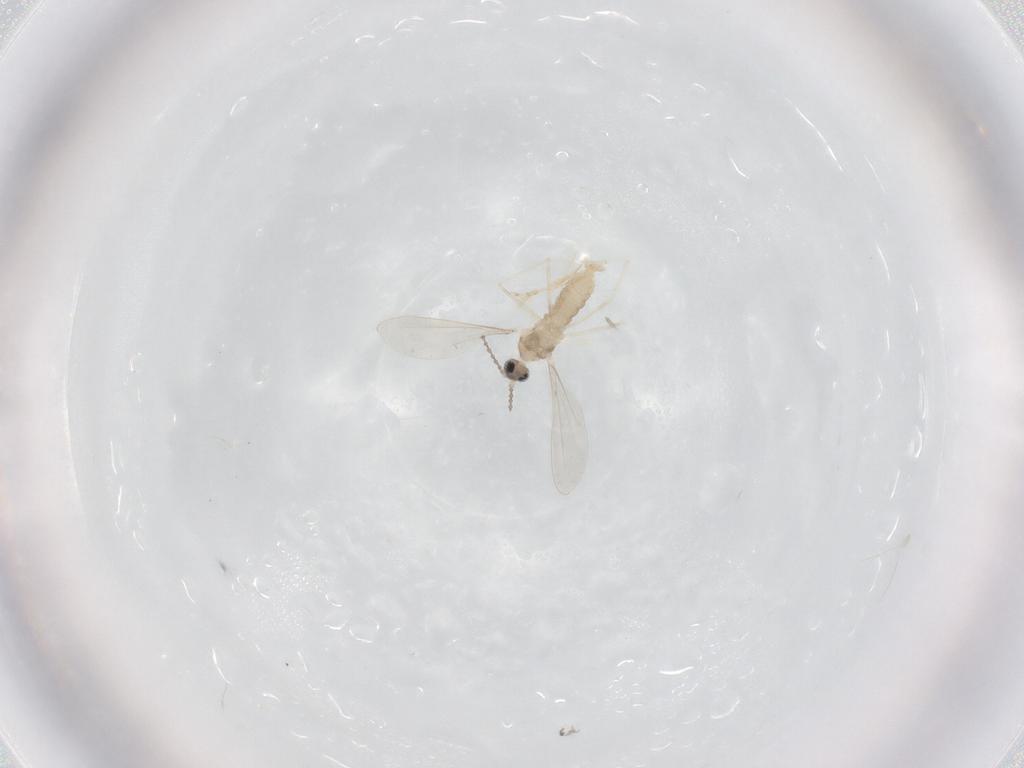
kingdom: Animalia
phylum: Arthropoda
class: Insecta
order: Diptera
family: Cecidomyiidae
